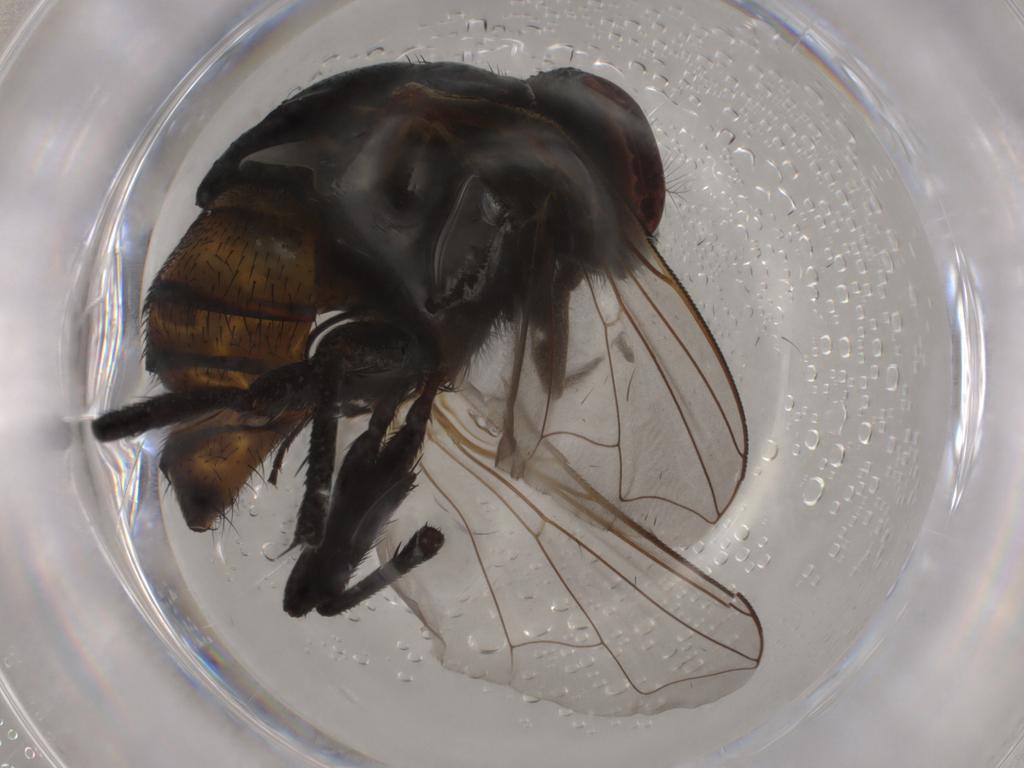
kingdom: Animalia
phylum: Arthropoda
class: Insecta
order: Diptera
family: Muscidae
